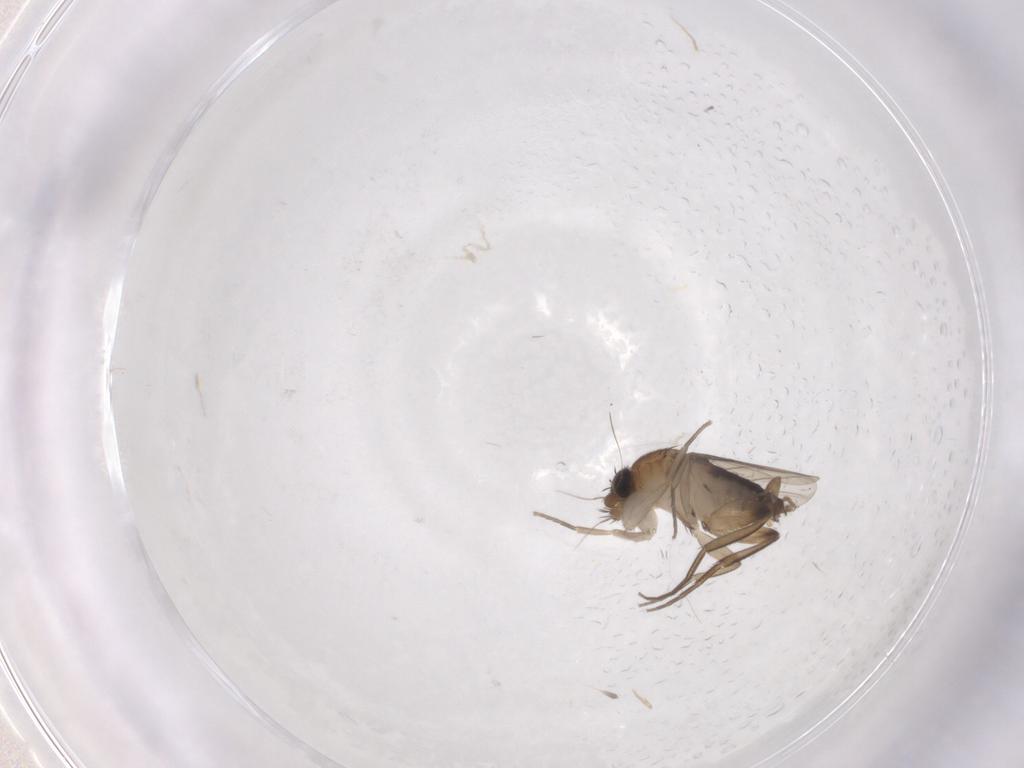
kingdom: Animalia
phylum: Arthropoda
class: Insecta
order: Diptera
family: Phoridae
